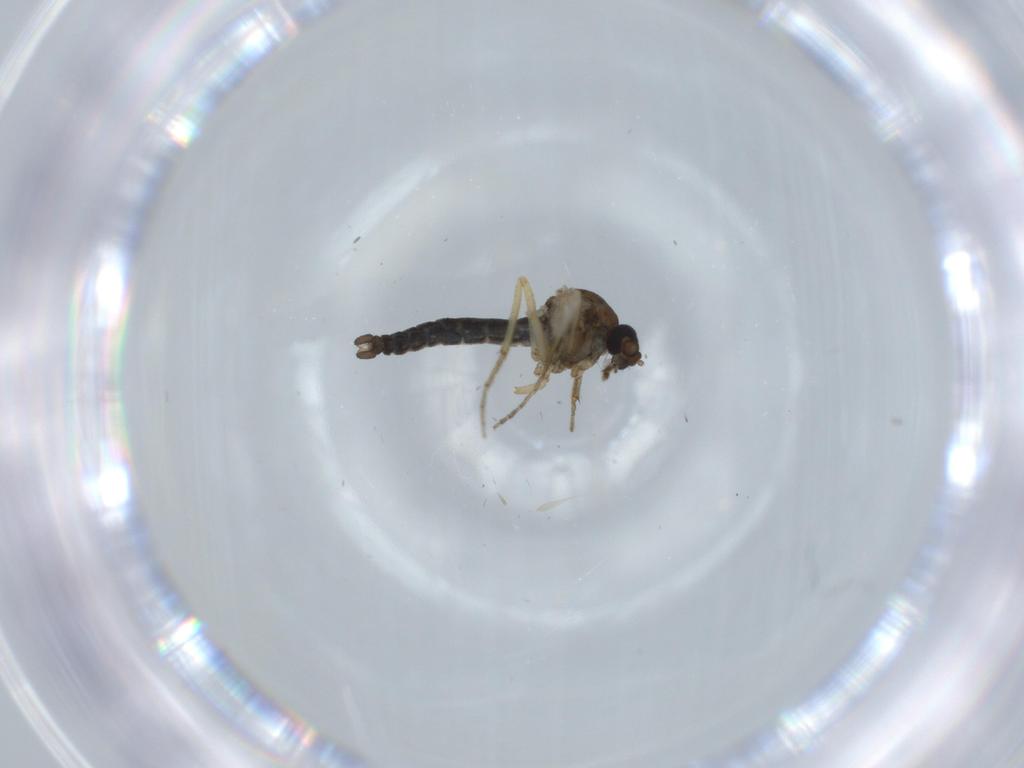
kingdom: Animalia
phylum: Arthropoda
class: Insecta
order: Diptera
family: Ceratopogonidae
